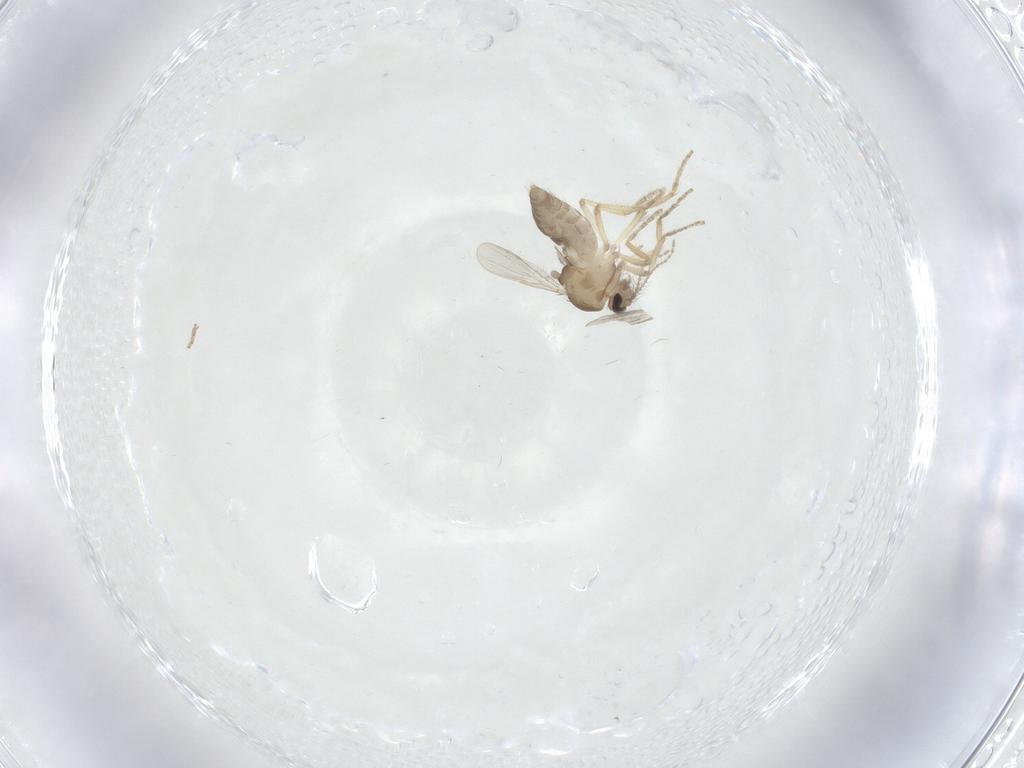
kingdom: Animalia
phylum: Arthropoda
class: Insecta
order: Diptera
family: Ceratopogonidae
